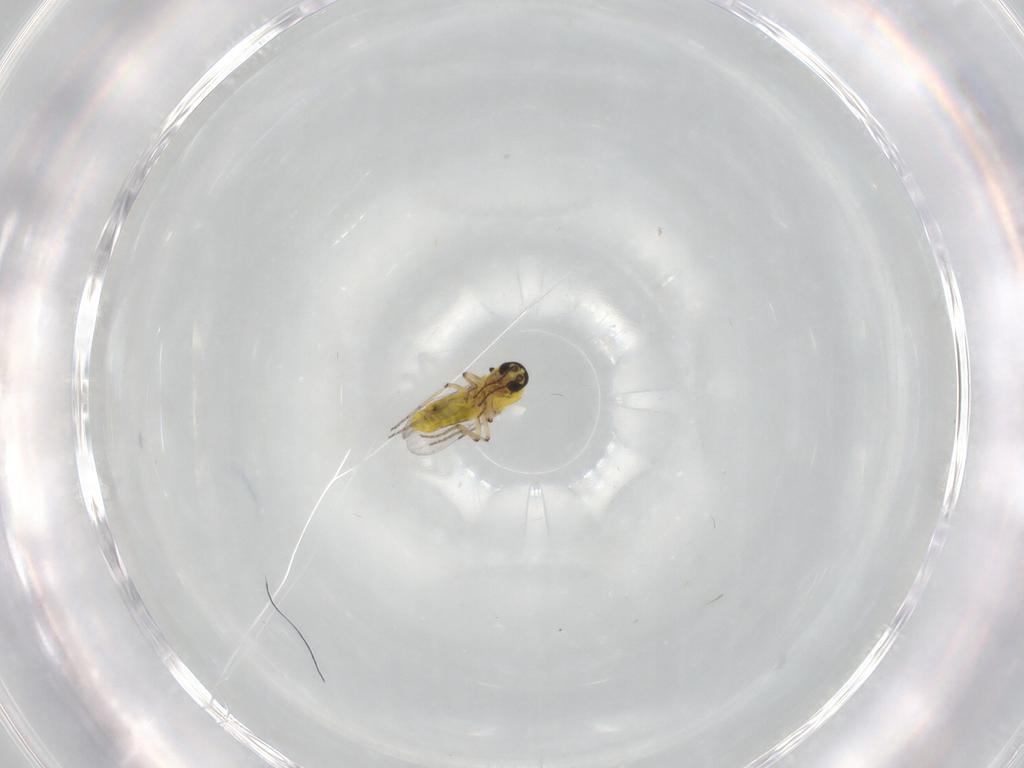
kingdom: Animalia
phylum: Arthropoda
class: Insecta
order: Diptera
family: Ceratopogonidae
